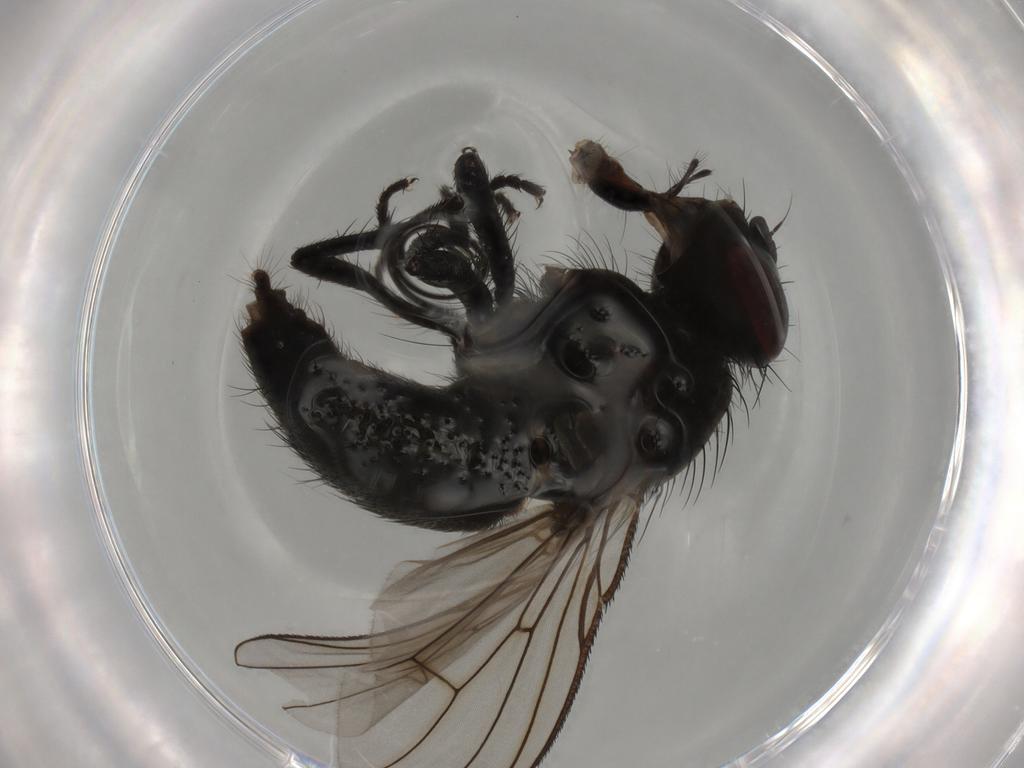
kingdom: Animalia
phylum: Arthropoda
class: Insecta
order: Diptera
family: Muscidae
